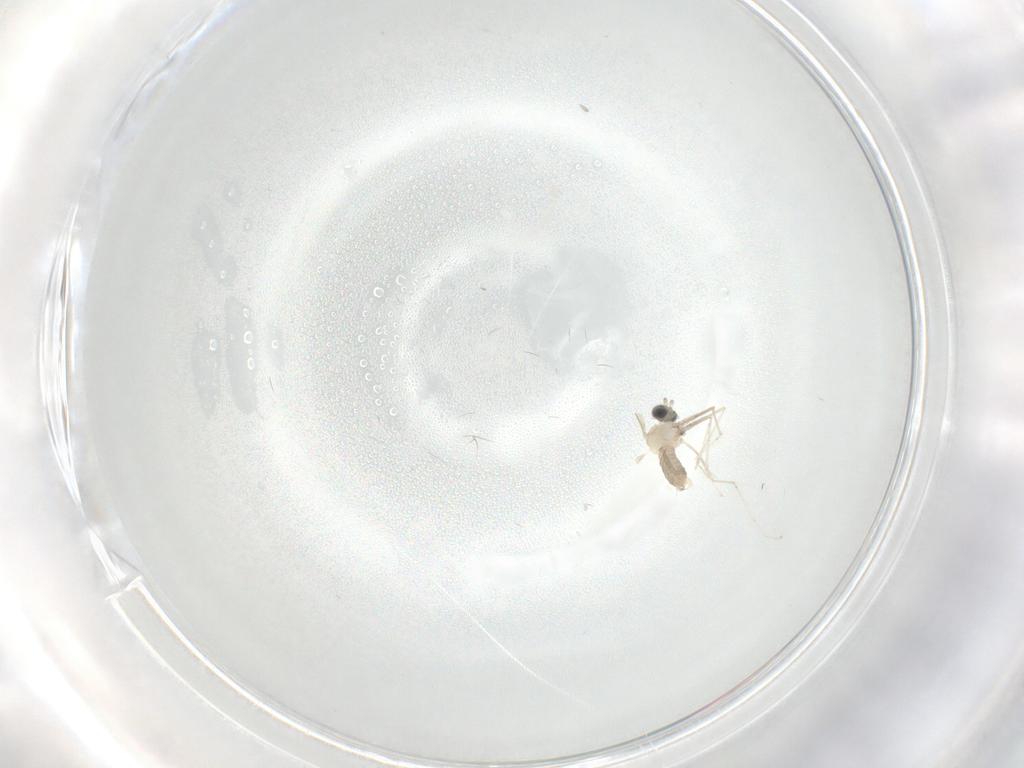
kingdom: Animalia
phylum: Arthropoda
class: Insecta
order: Diptera
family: Cecidomyiidae
